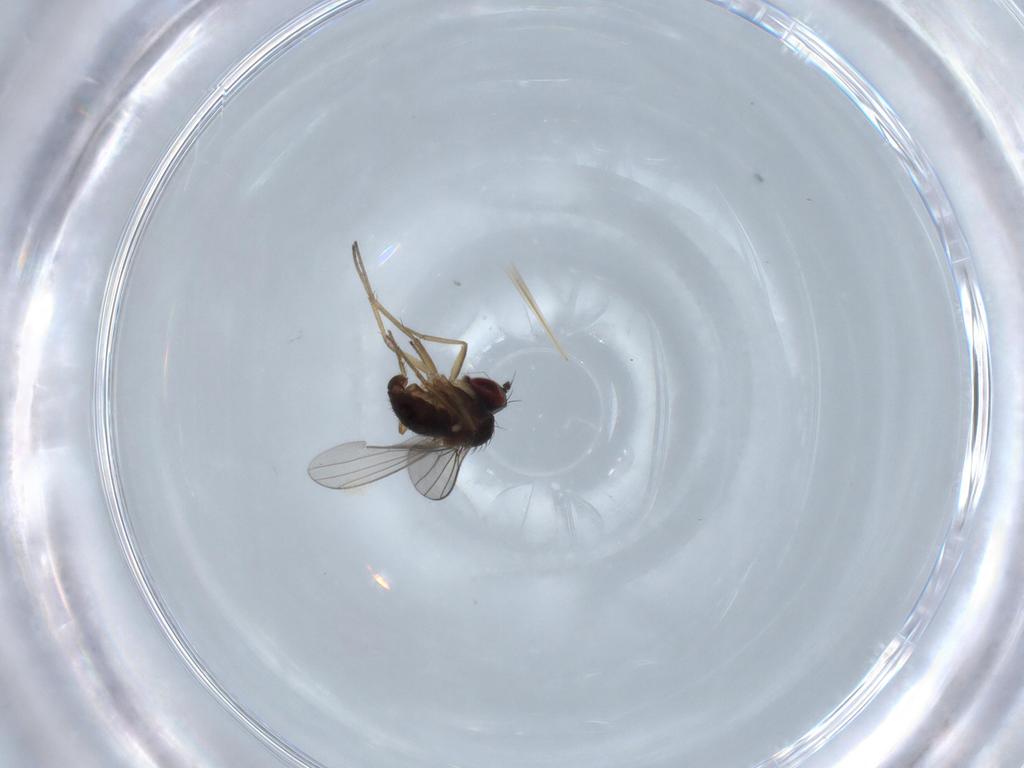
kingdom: Animalia
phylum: Arthropoda
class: Insecta
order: Diptera
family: Dolichopodidae
